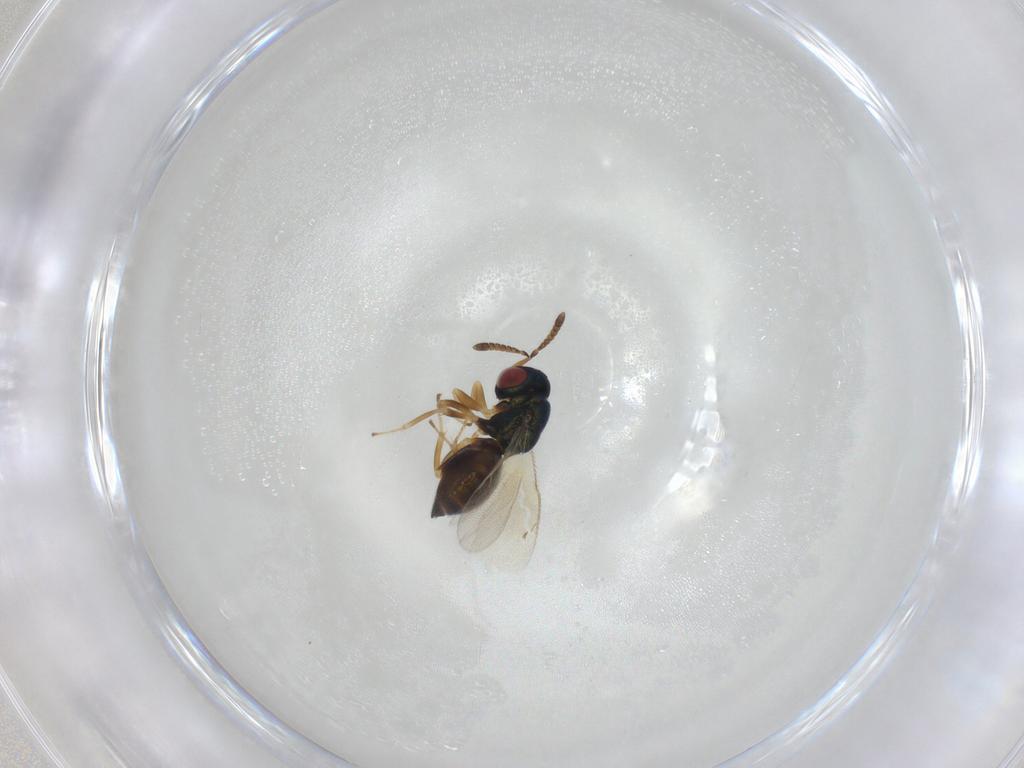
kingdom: Animalia
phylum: Arthropoda
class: Insecta
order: Hymenoptera
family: Pteromalidae
